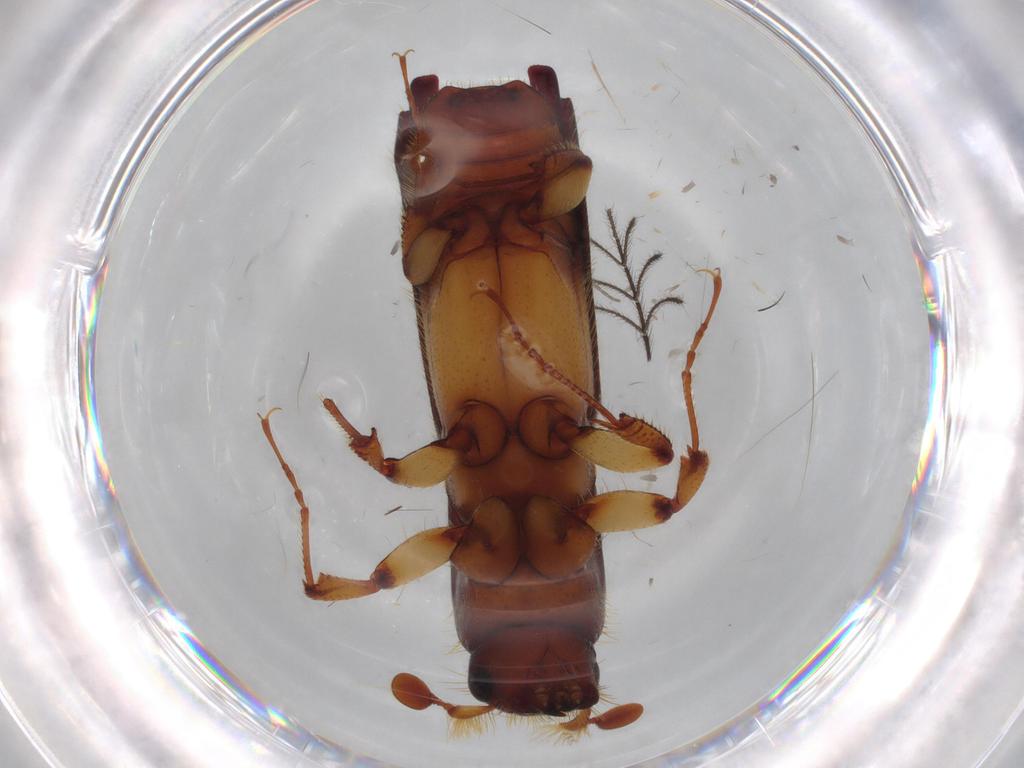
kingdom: Animalia
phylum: Arthropoda
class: Insecta
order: Coleoptera
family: Curculionidae
